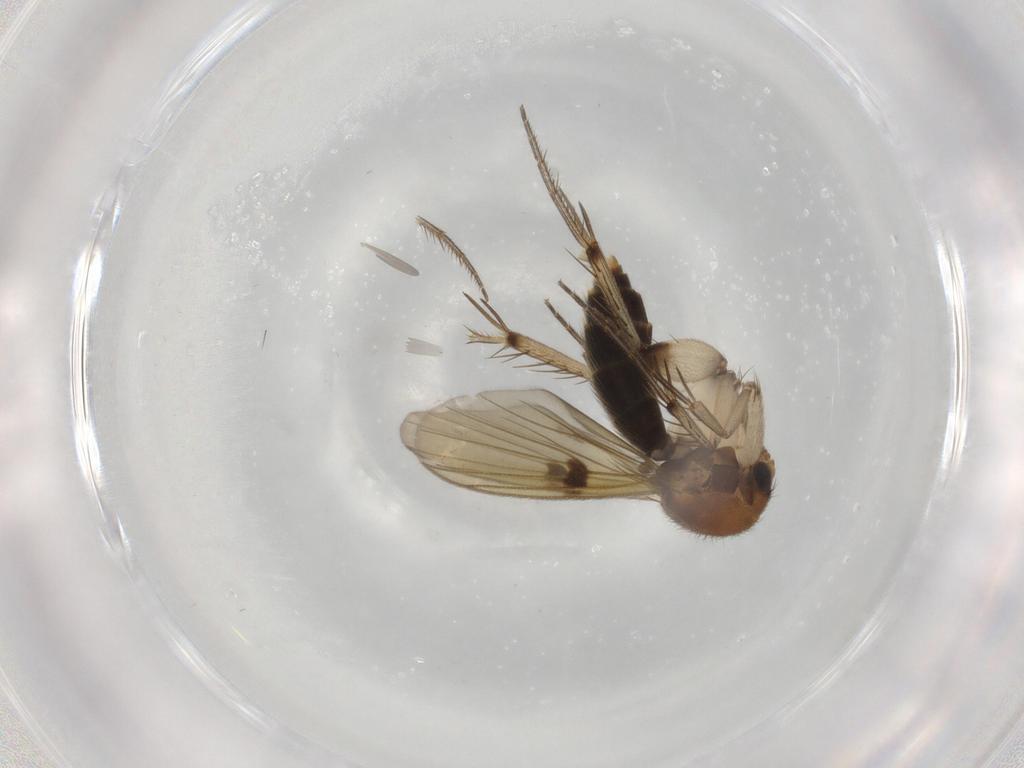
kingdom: Animalia
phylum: Arthropoda
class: Insecta
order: Diptera
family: Mycetophilidae
